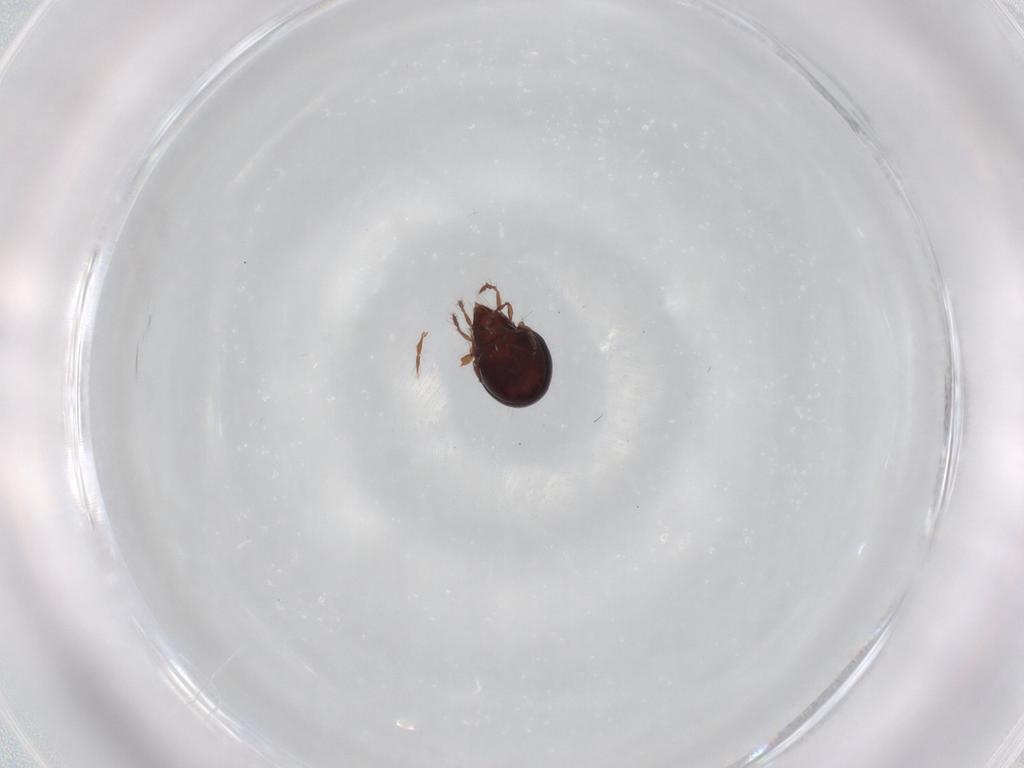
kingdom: Animalia
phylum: Arthropoda
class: Arachnida
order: Sarcoptiformes
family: Ceratoppiidae
